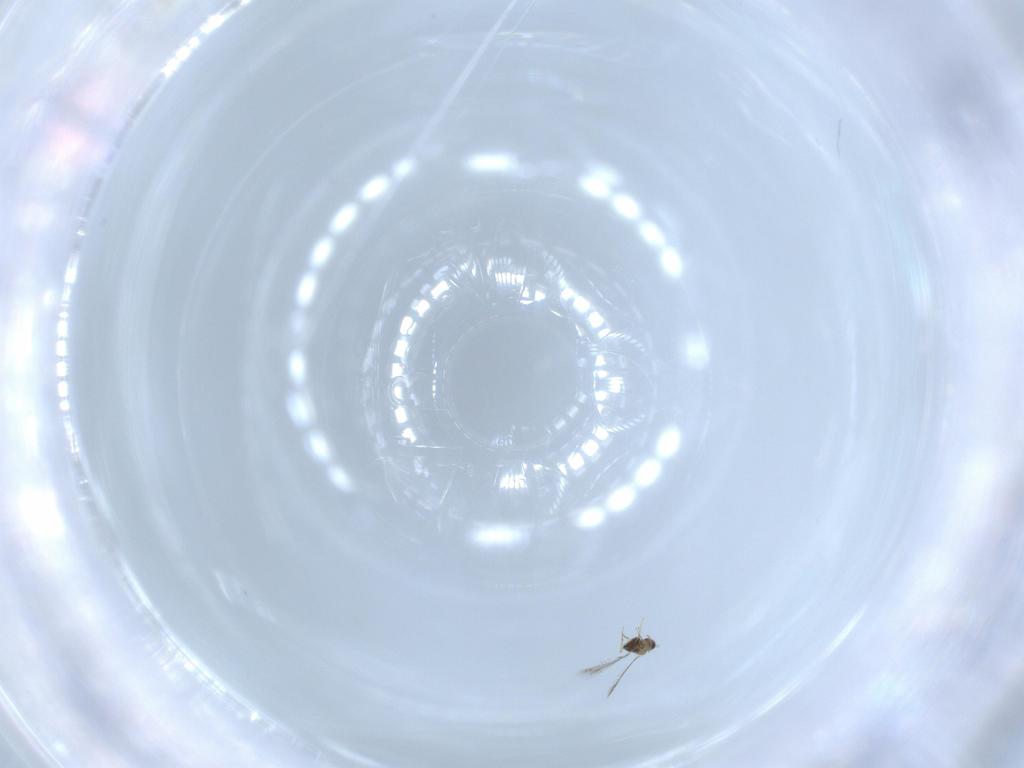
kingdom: Animalia
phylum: Arthropoda
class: Insecta
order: Hymenoptera
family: Mymaridae
